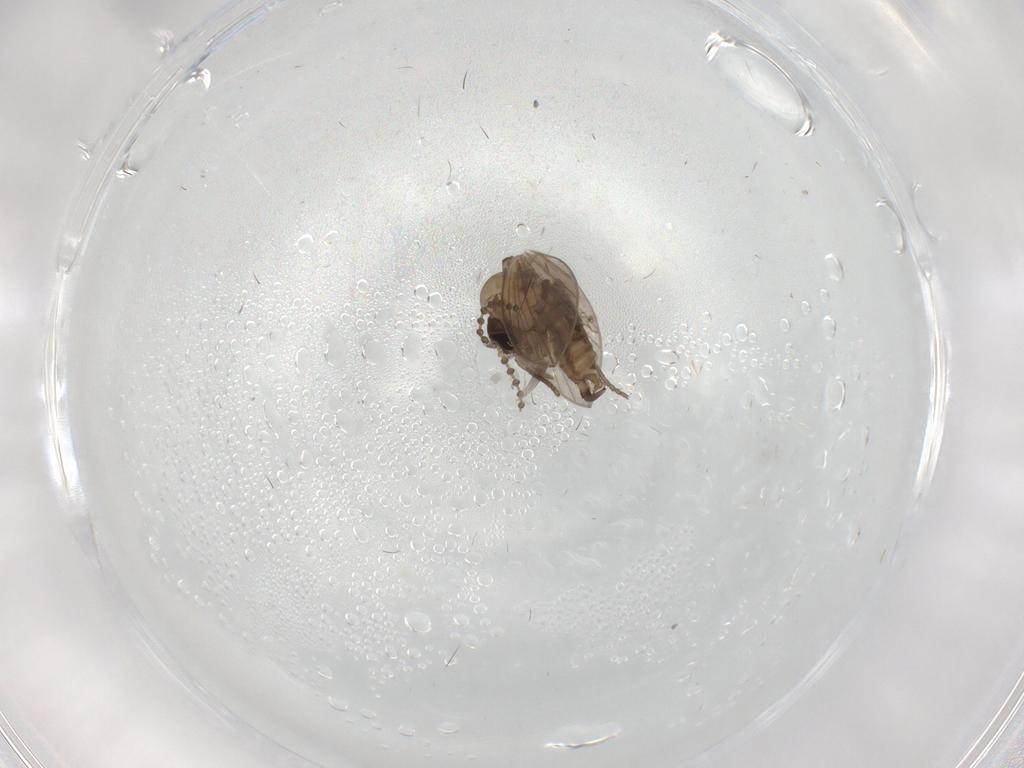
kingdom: Animalia
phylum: Arthropoda
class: Insecta
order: Diptera
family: Psychodidae
